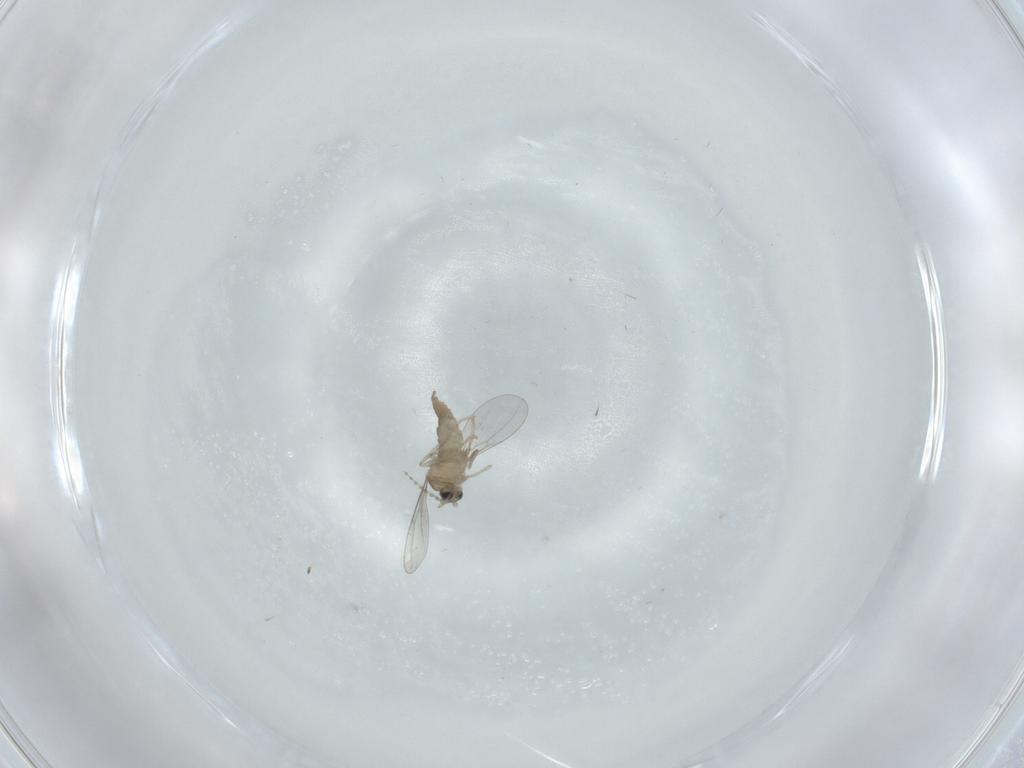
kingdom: Animalia
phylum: Arthropoda
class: Insecta
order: Diptera
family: Cecidomyiidae
